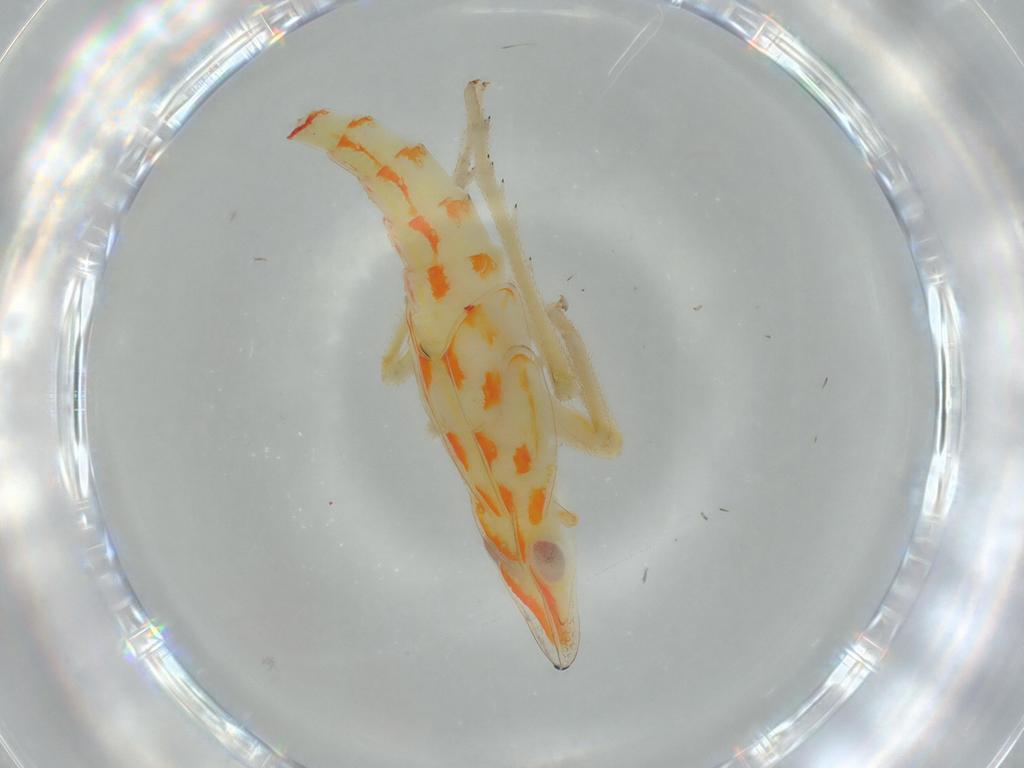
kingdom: Animalia
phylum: Arthropoda
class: Insecta
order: Hemiptera
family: Tropiduchidae
